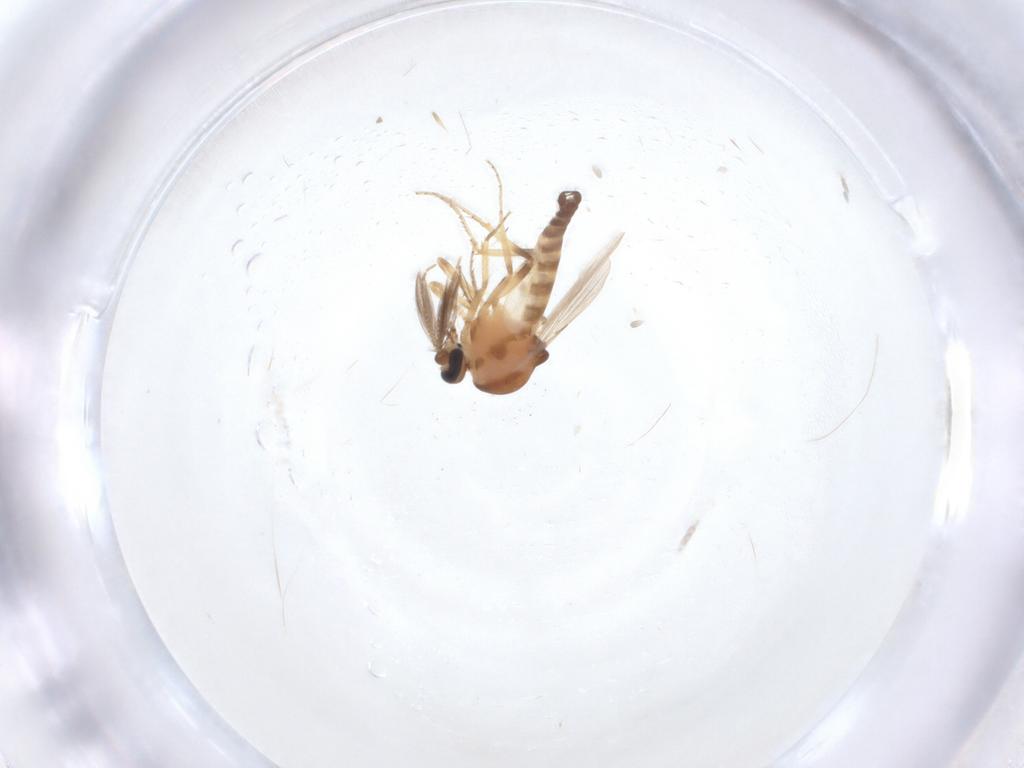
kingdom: Animalia
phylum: Arthropoda
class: Insecta
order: Diptera
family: Ceratopogonidae
